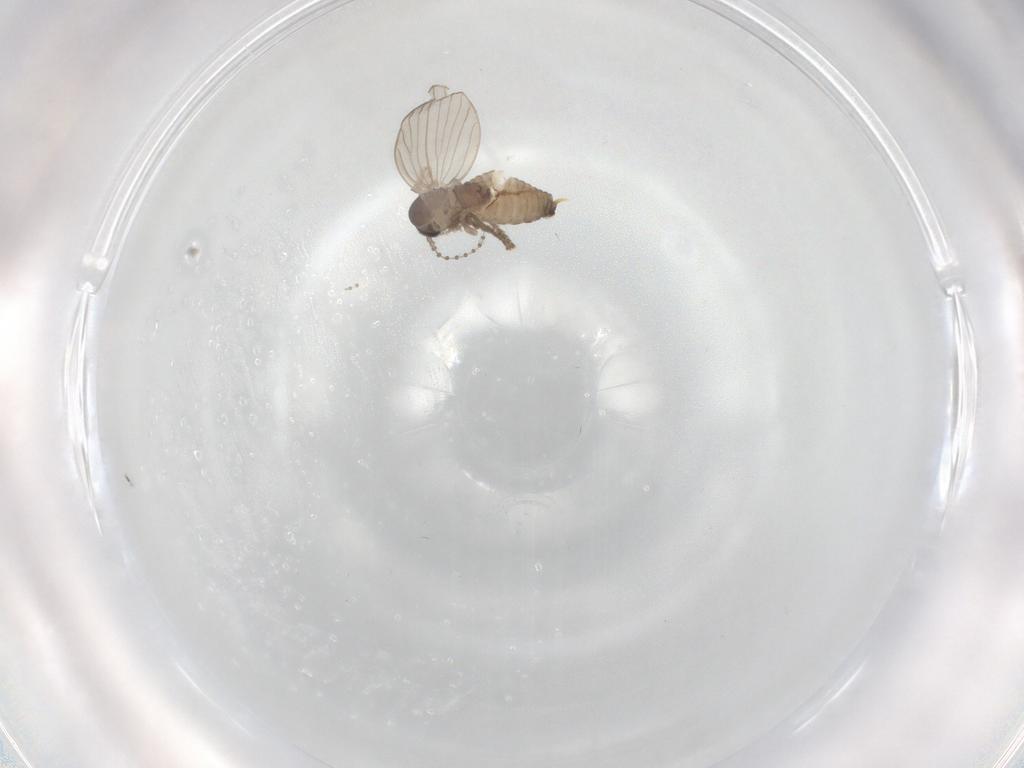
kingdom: Animalia
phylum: Arthropoda
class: Insecta
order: Diptera
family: Psychodidae
